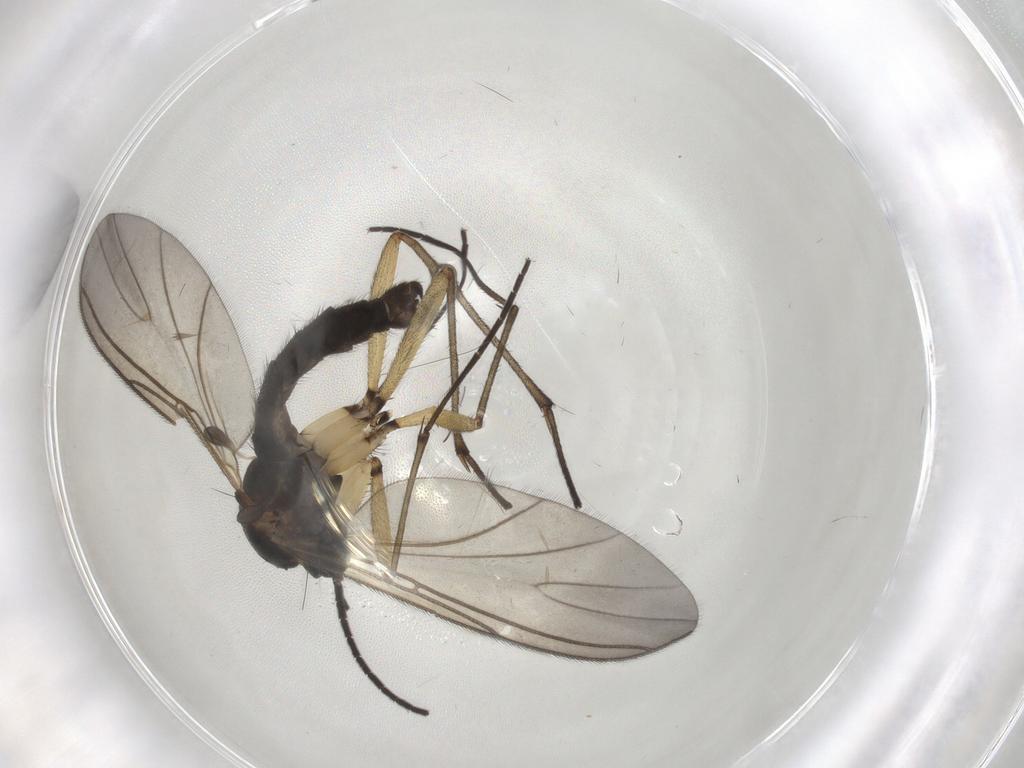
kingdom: Animalia
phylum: Arthropoda
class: Insecta
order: Diptera
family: Sciaridae
